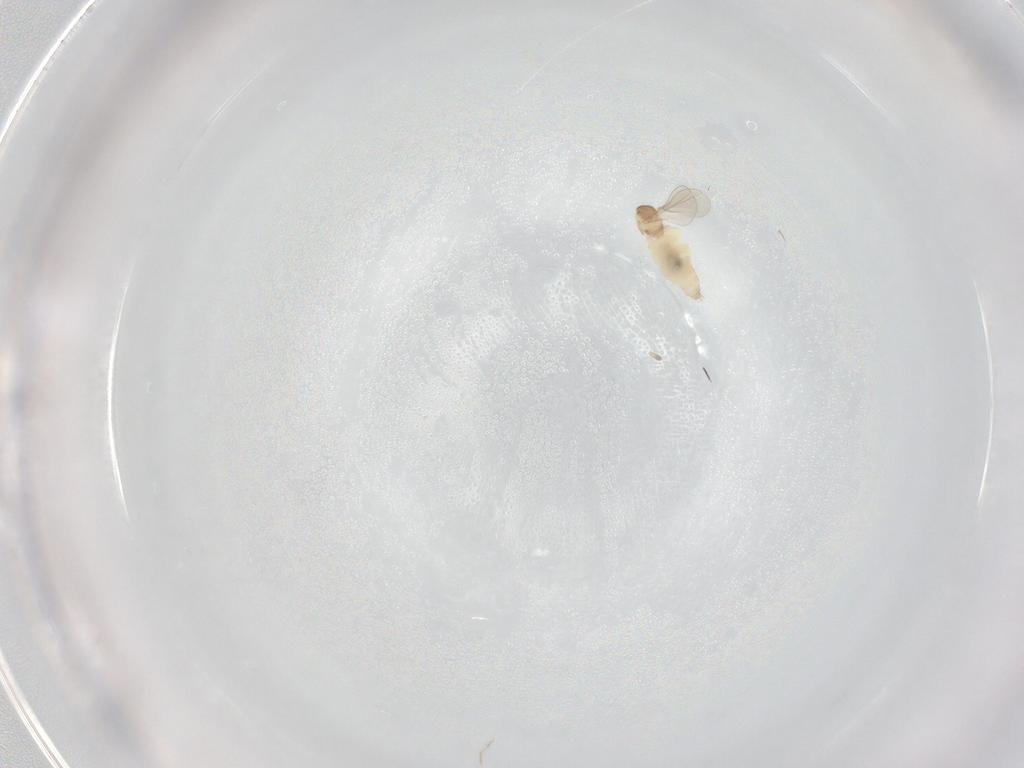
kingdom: Animalia
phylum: Arthropoda
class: Insecta
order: Diptera
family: Cecidomyiidae
